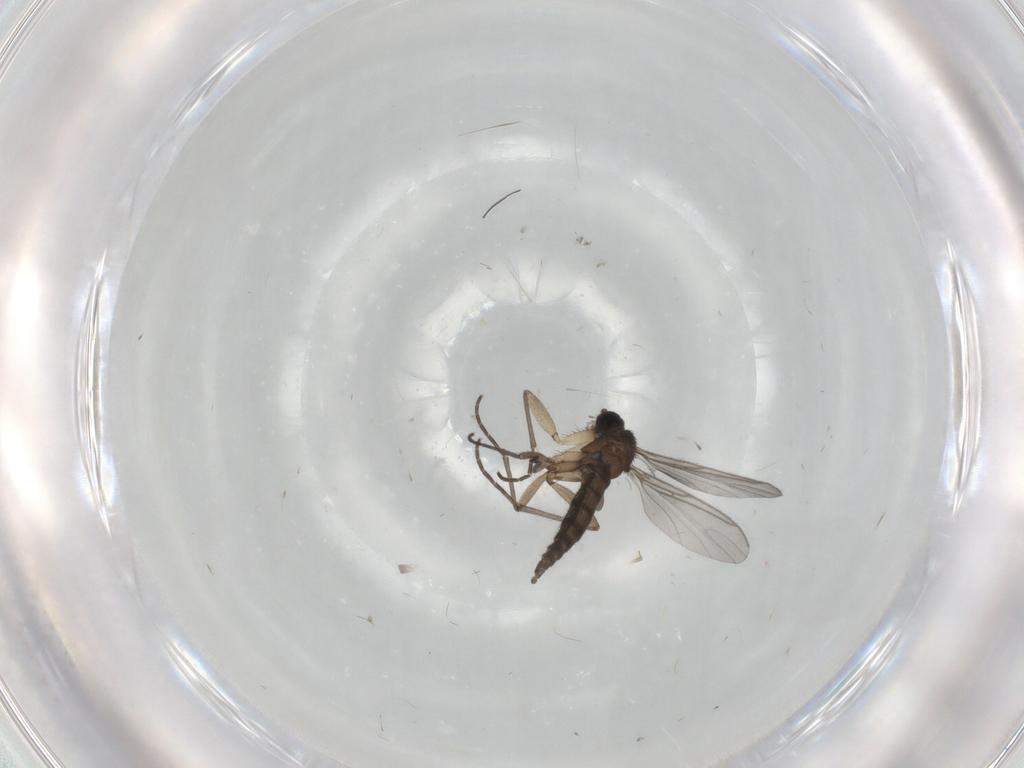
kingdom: Animalia
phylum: Arthropoda
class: Insecta
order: Diptera
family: Sciaridae
